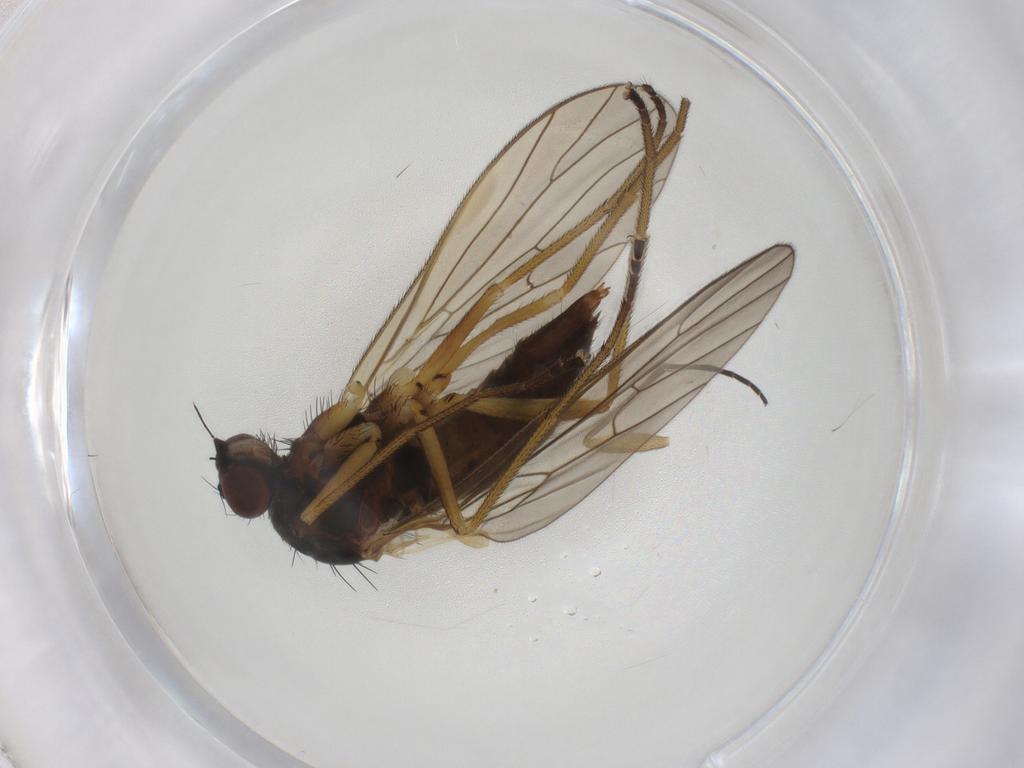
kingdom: Animalia
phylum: Arthropoda
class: Insecta
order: Diptera
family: Brachystomatidae
